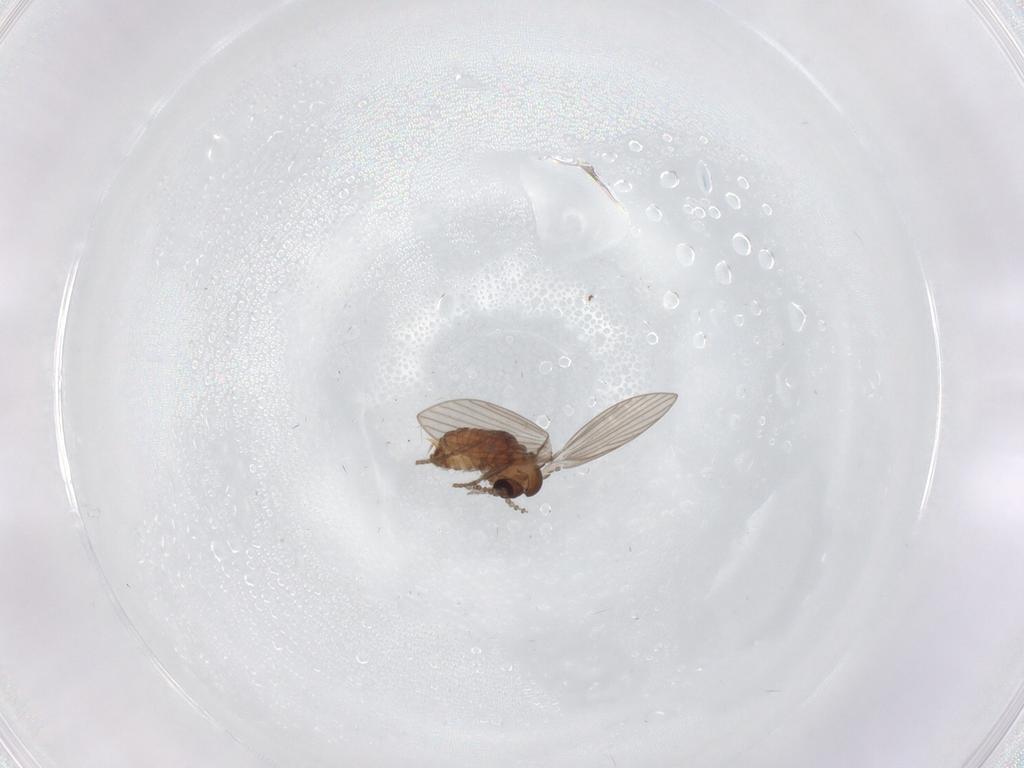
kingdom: Animalia
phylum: Arthropoda
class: Insecta
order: Diptera
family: Psychodidae
